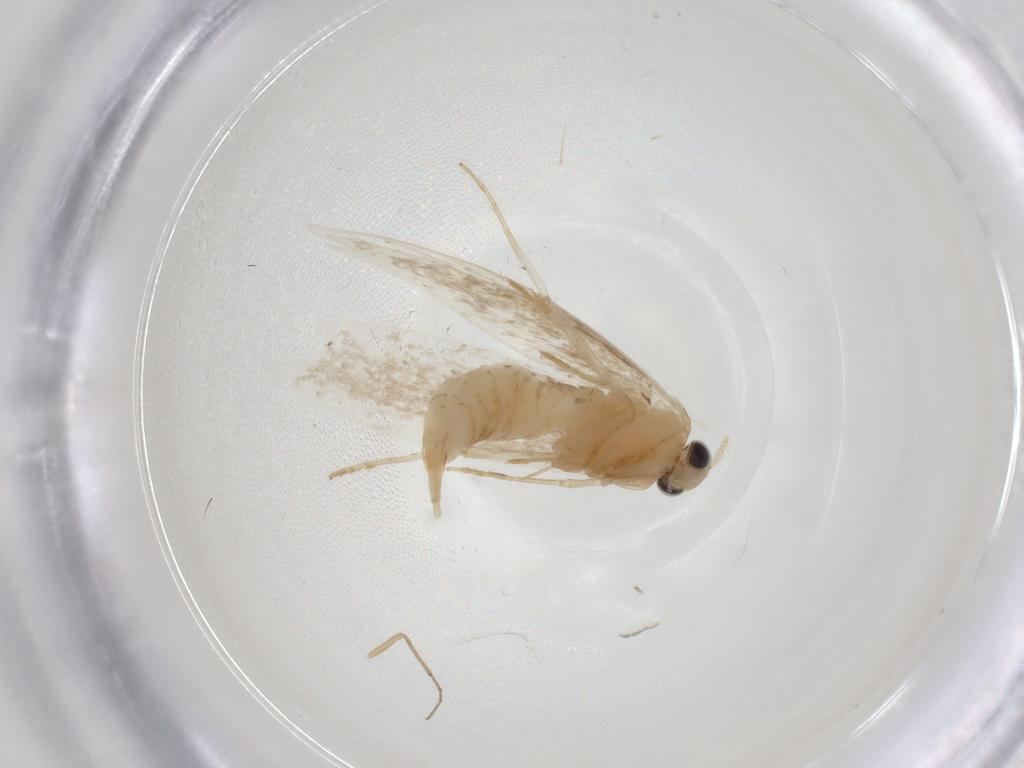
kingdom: Animalia
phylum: Arthropoda
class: Insecta
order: Lepidoptera
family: Tineidae
